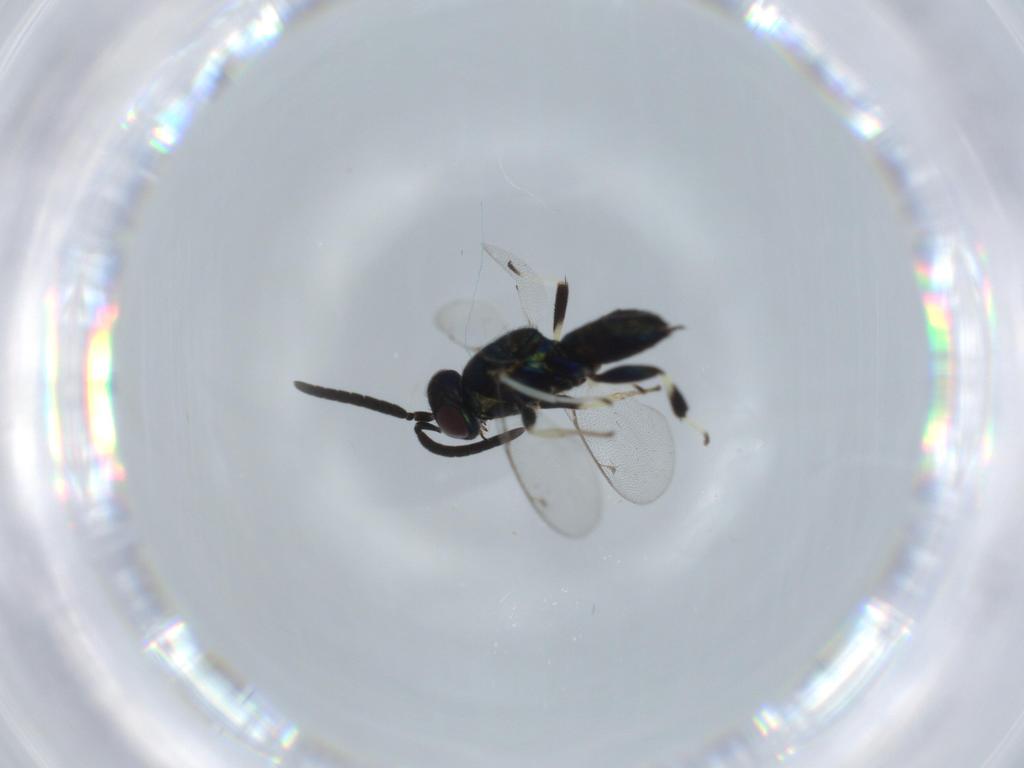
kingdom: Animalia
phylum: Arthropoda
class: Insecta
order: Hymenoptera
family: Eupelmidae
